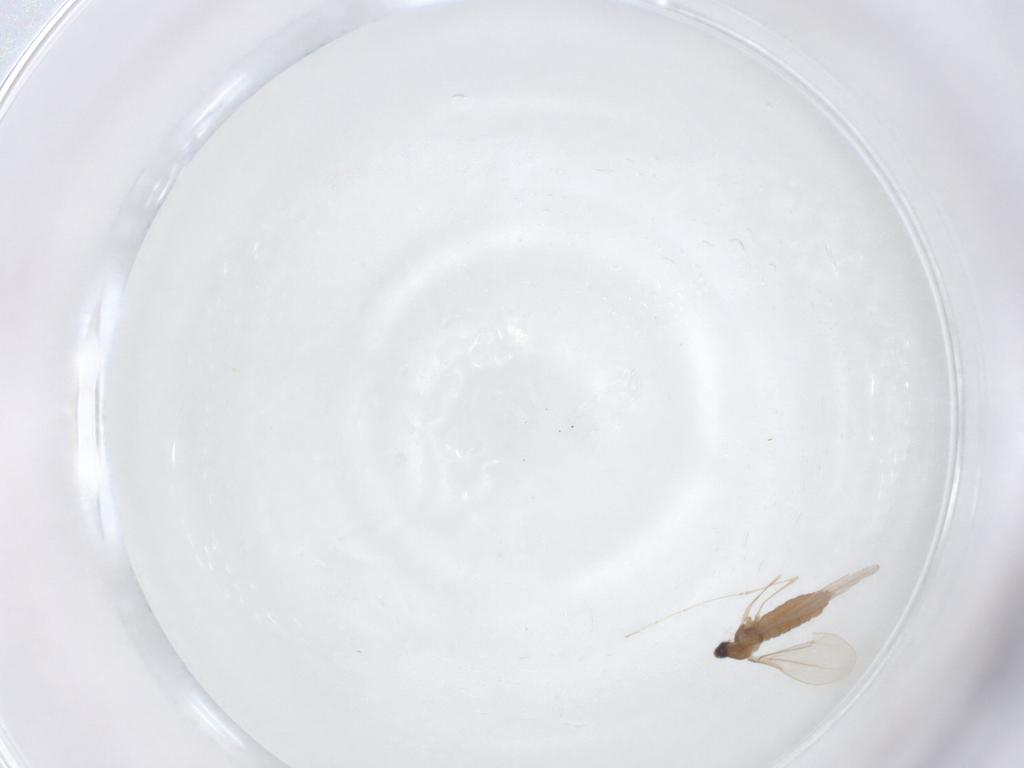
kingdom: Animalia
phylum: Arthropoda
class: Insecta
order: Diptera
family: Cecidomyiidae
